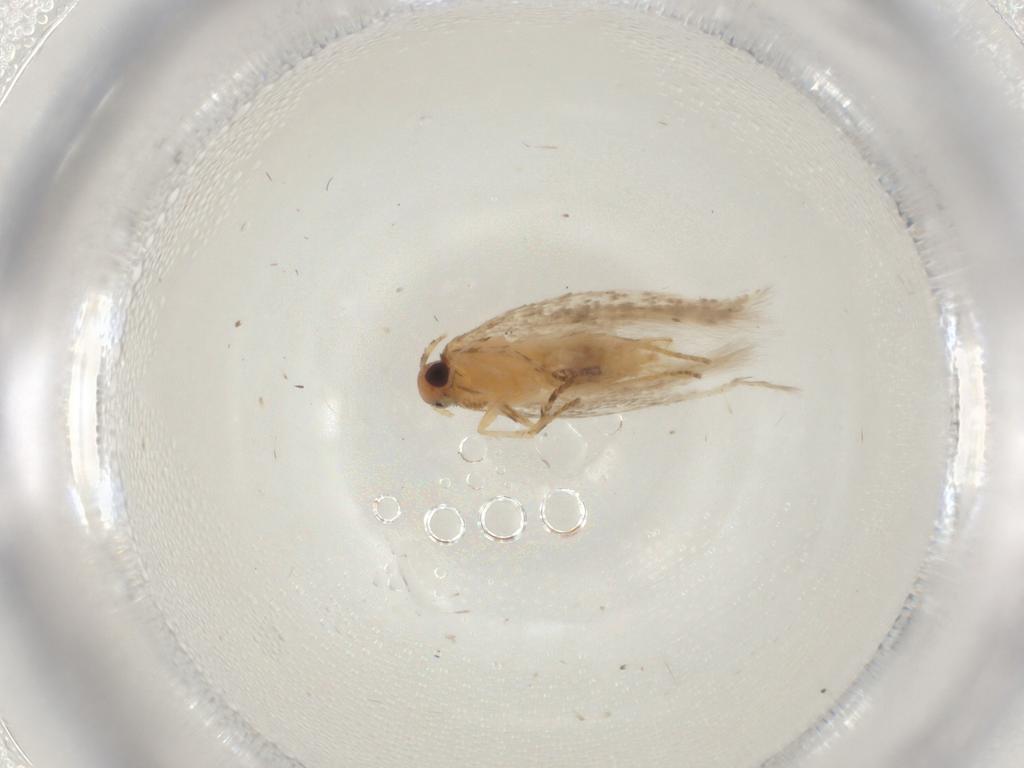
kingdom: Animalia
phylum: Arthropoda
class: Insecta
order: Lepidoptera
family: Gelechiidae
